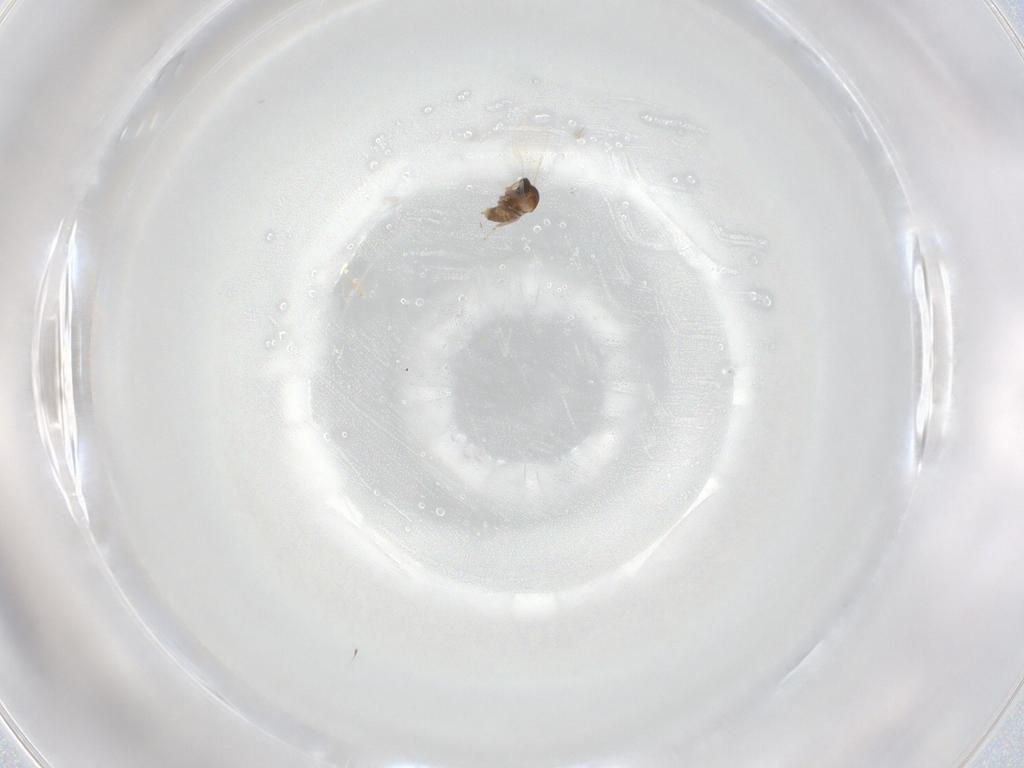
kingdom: Animalia
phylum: Arthropoda
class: Insecta
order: Diptera
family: Cecidomyiidae
